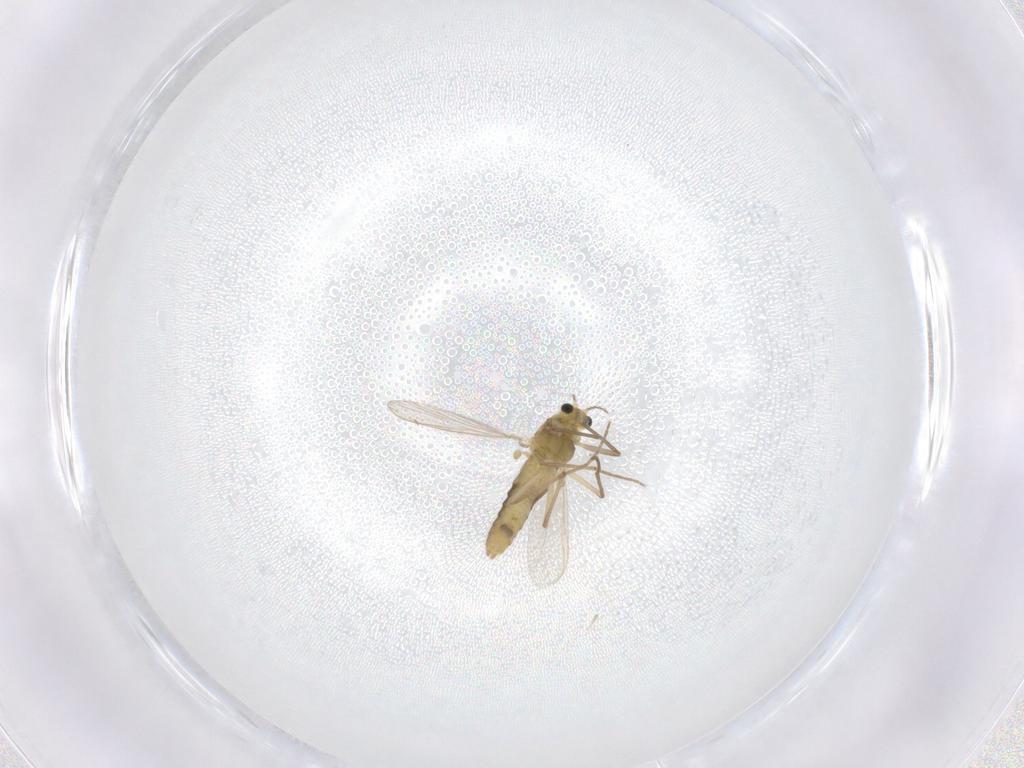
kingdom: Animalia
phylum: Arthropoda
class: Insecta
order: Diptera
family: Chironomidae
